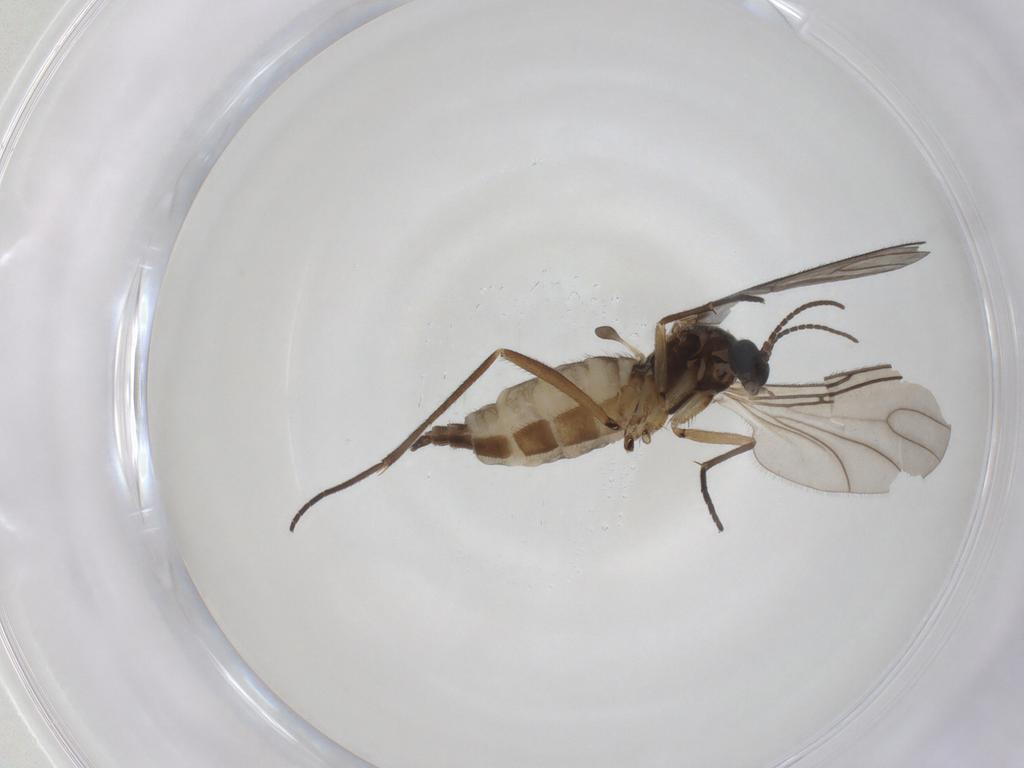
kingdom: Animalia
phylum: Arthropoda
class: Insecta
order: Diptera
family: Sciaridae
